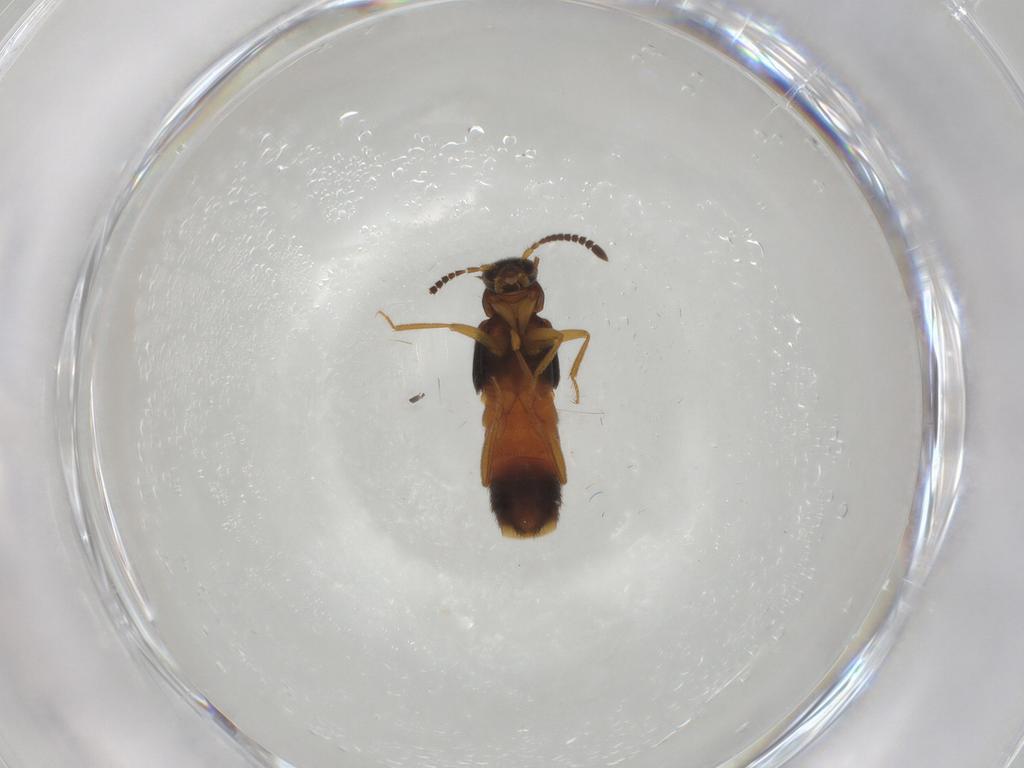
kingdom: Animalia
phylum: Arthropoda
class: Insecta
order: Coleoptera
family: Staphylinidae
